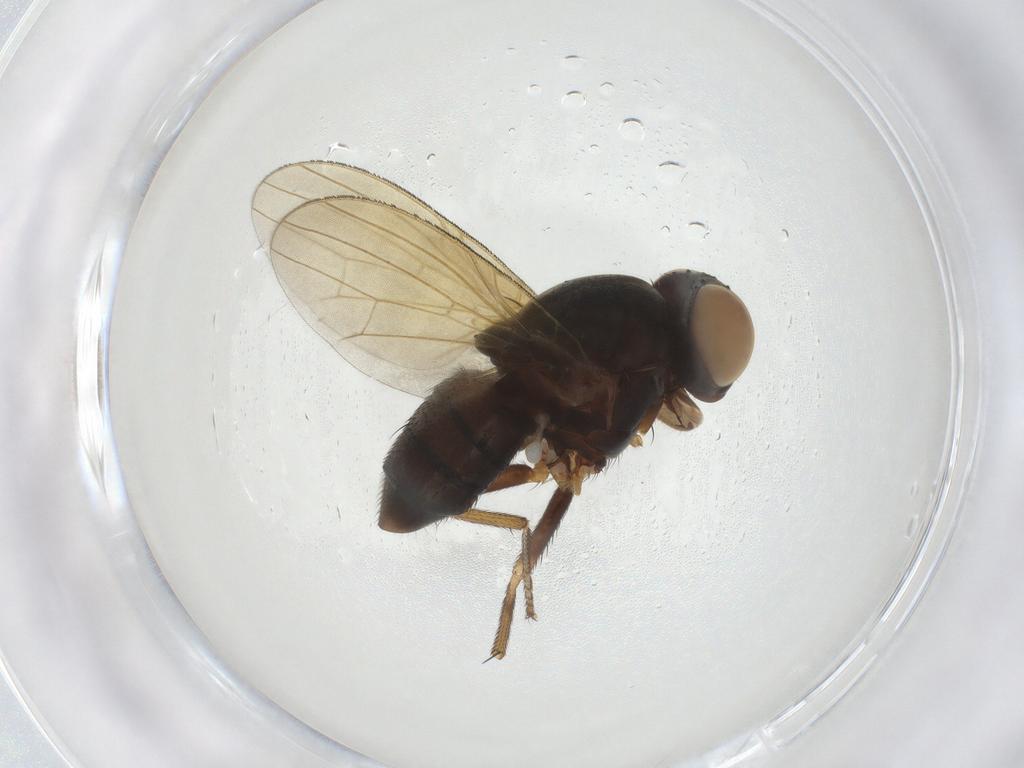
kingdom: Animalia
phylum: Arthropoda
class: Insecta
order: Diptera
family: Lauxaniidae
